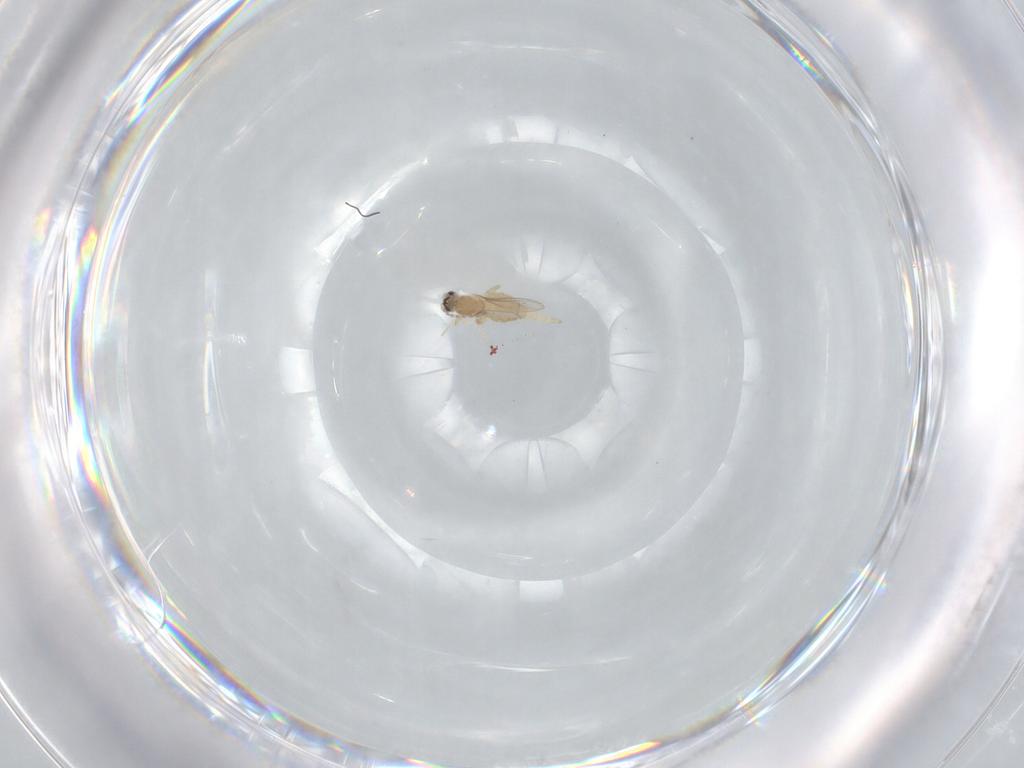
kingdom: Animalia
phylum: Arthropoda
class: Insecta
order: Diptera
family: Cecidomyiidae
